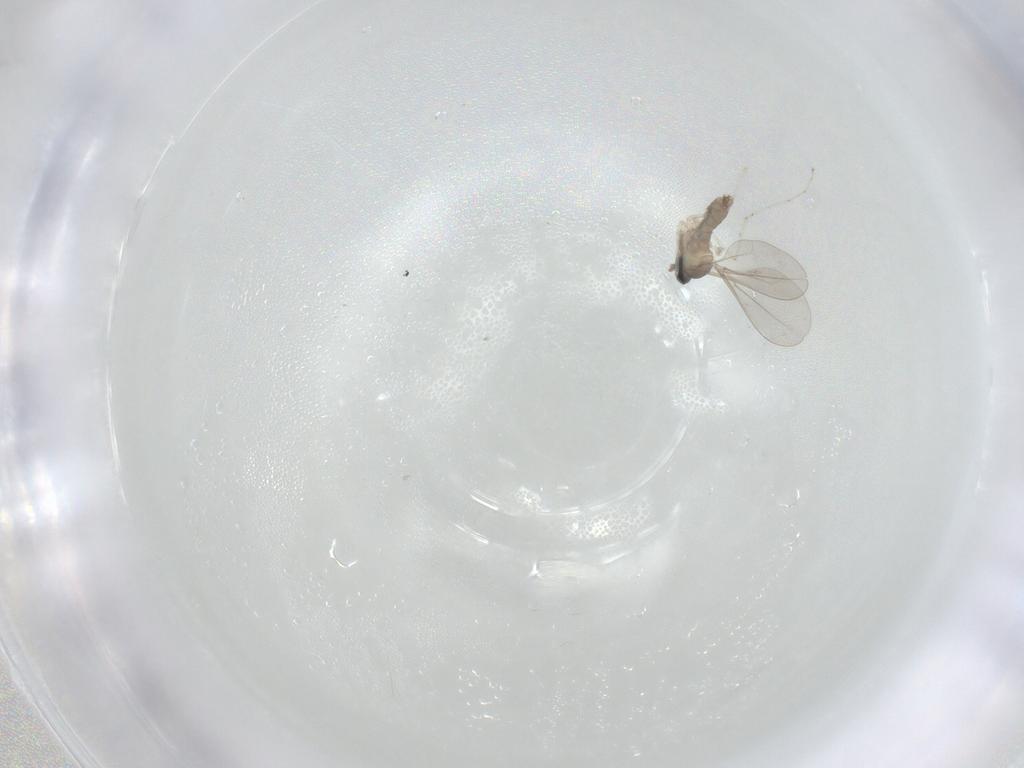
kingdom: Animalia
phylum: Arthropoda
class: Insecta
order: Diptera
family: Cecidomyiidae
